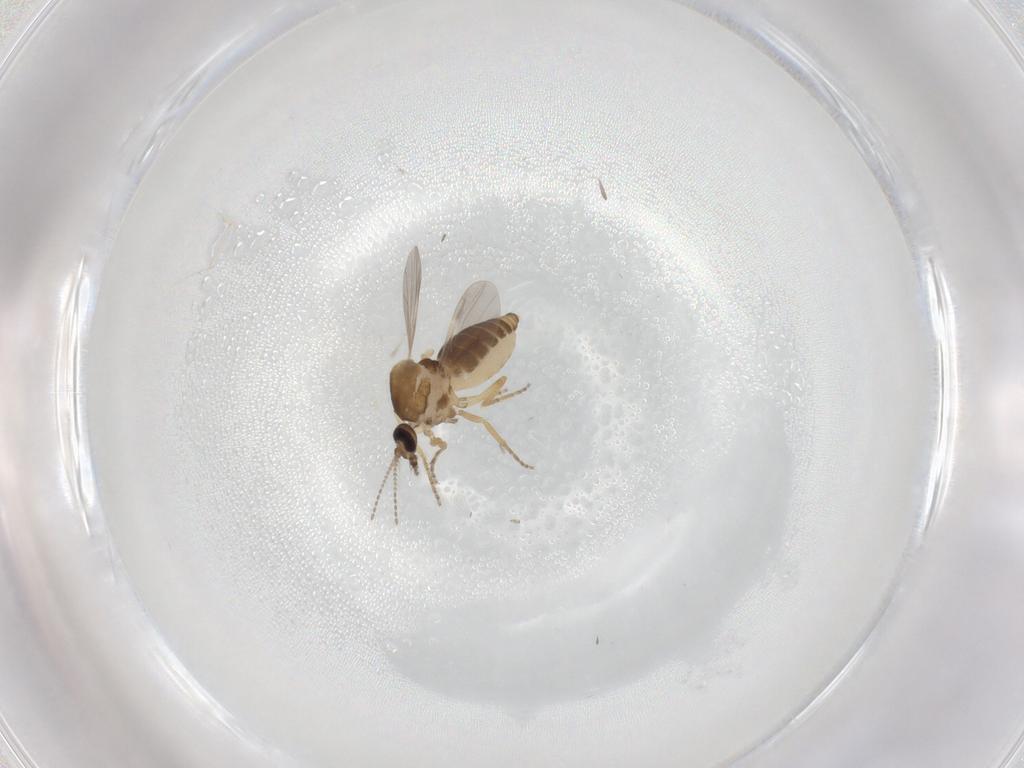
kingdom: Animalia
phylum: Arthropoda
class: Insecta
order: Diptera
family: Ceratopogonidae
